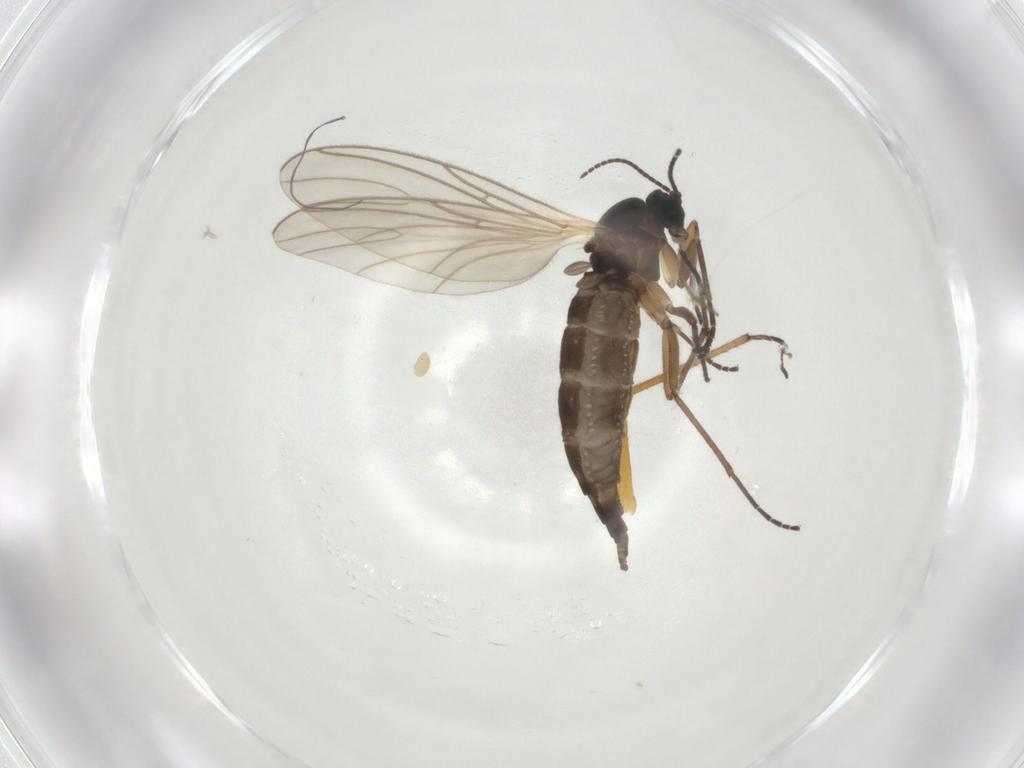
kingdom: Animalia
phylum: Arthropoda
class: Insecta
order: Diptera
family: Sciaridae
